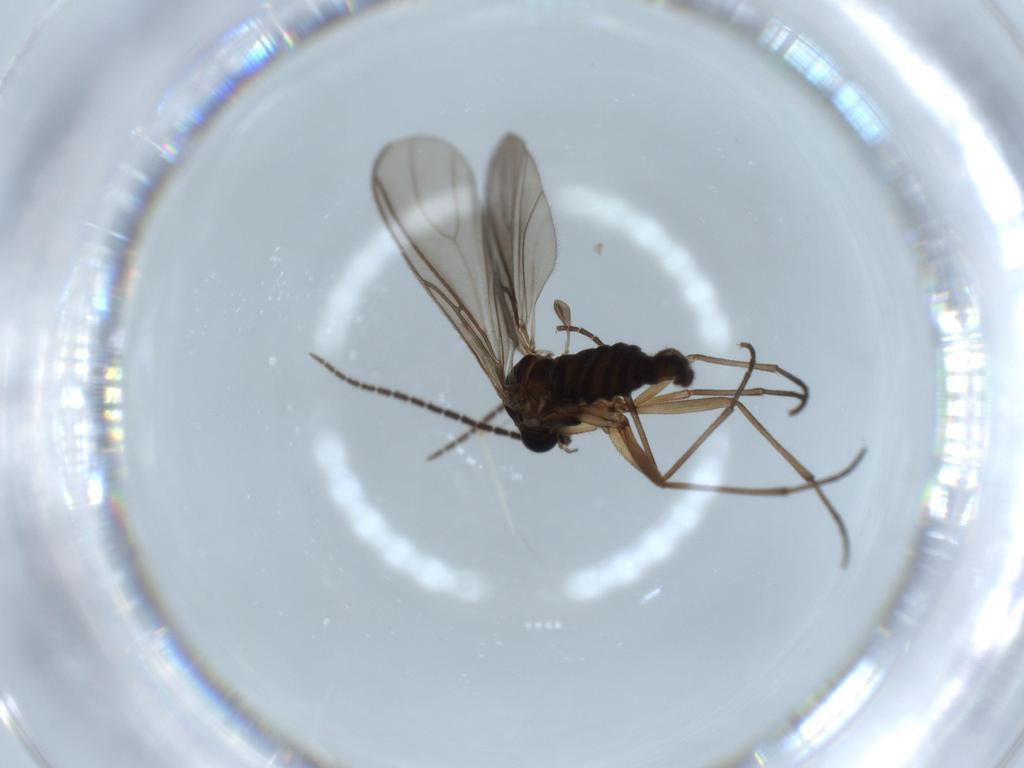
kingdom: Animalia
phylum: Arthropoda
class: Insecta
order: Diptera
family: Sciaridae
